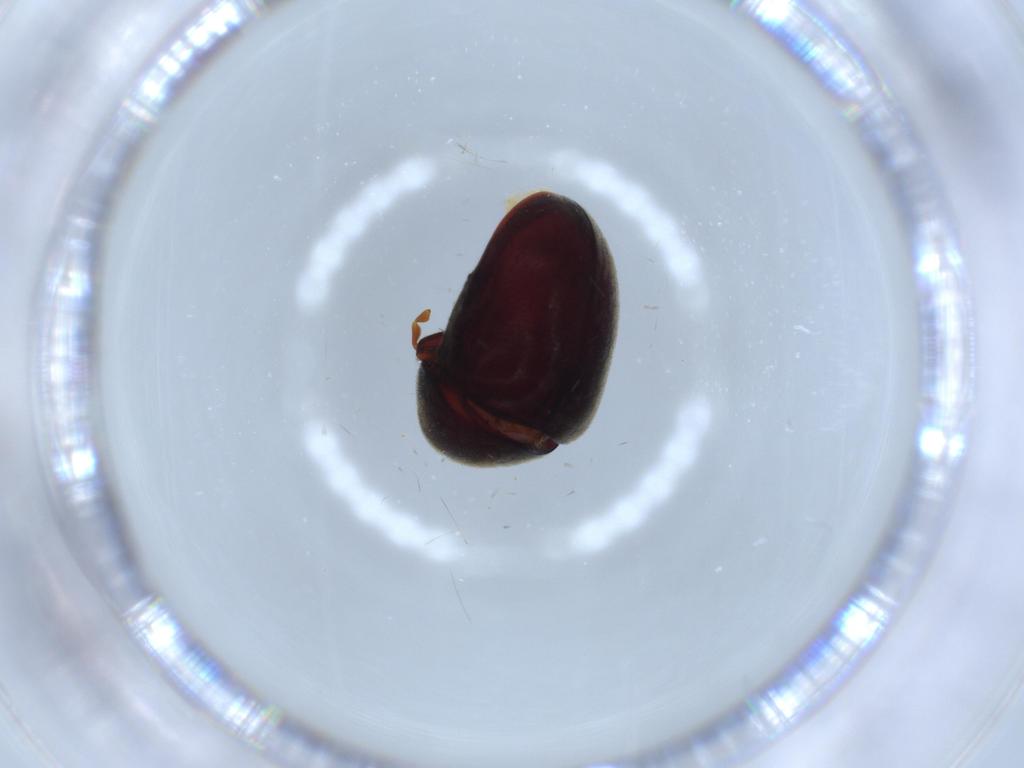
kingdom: Animalia
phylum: Arthropoda
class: Insecta
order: Coleoptera
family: Ptinidae
